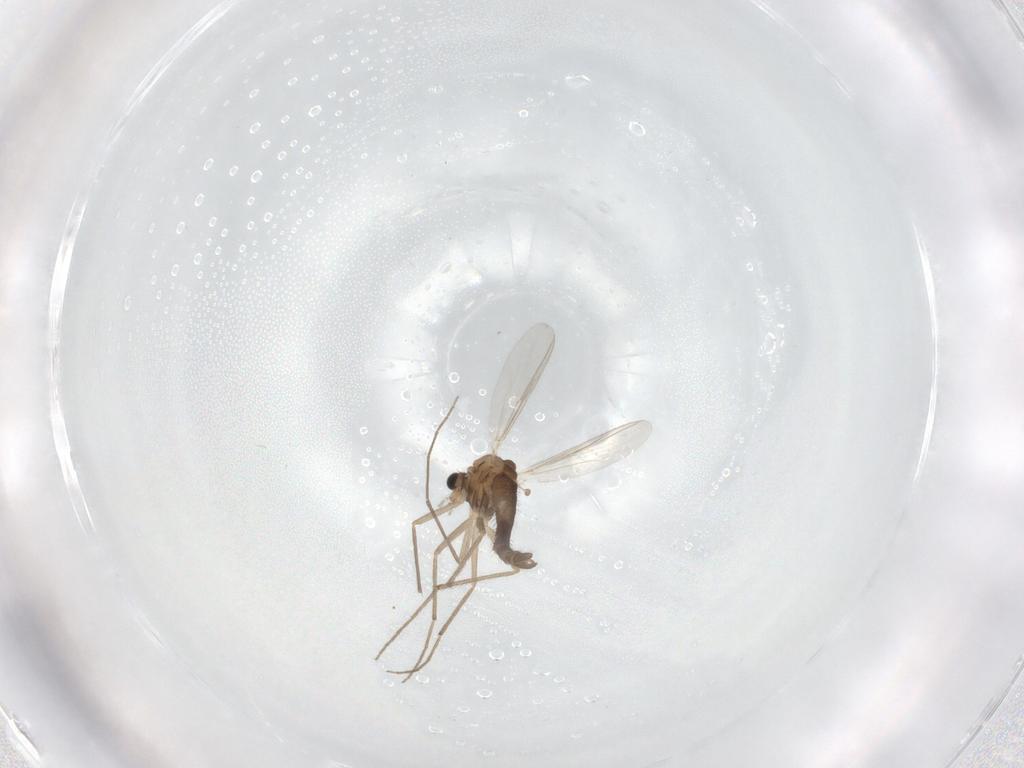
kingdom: Animalia
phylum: Arthropoda
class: Insecta
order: Diptera
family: Chironomidae
